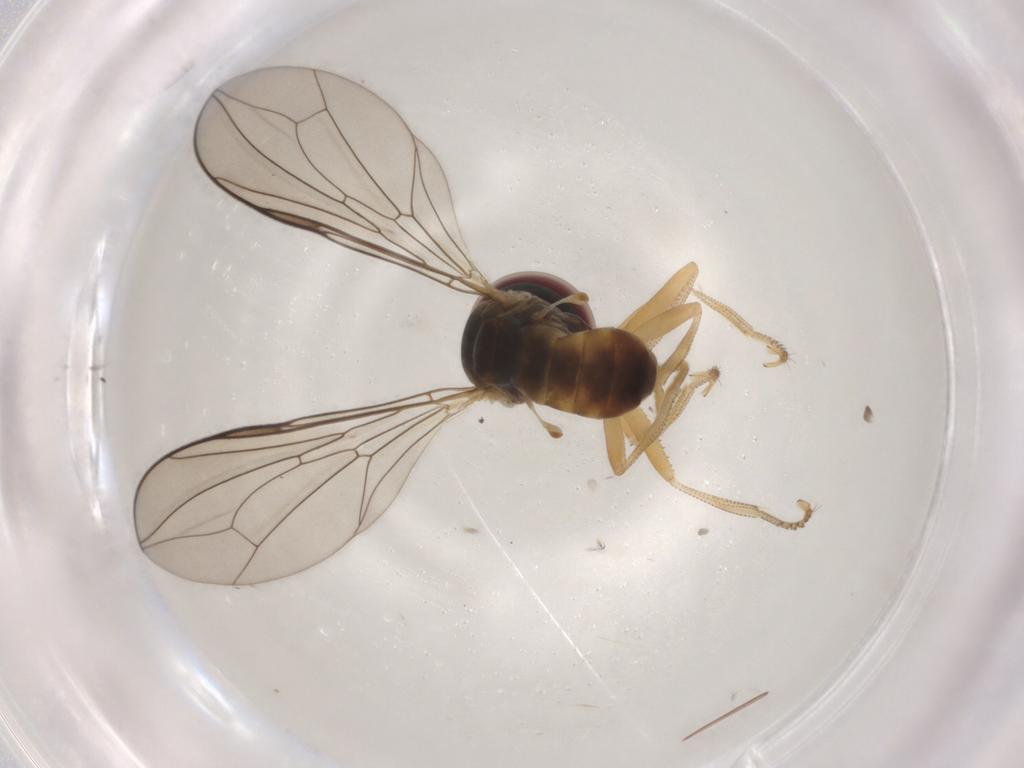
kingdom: Animalia
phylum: Arthropoda
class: Insecta
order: Diptera
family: Pipunculidae
